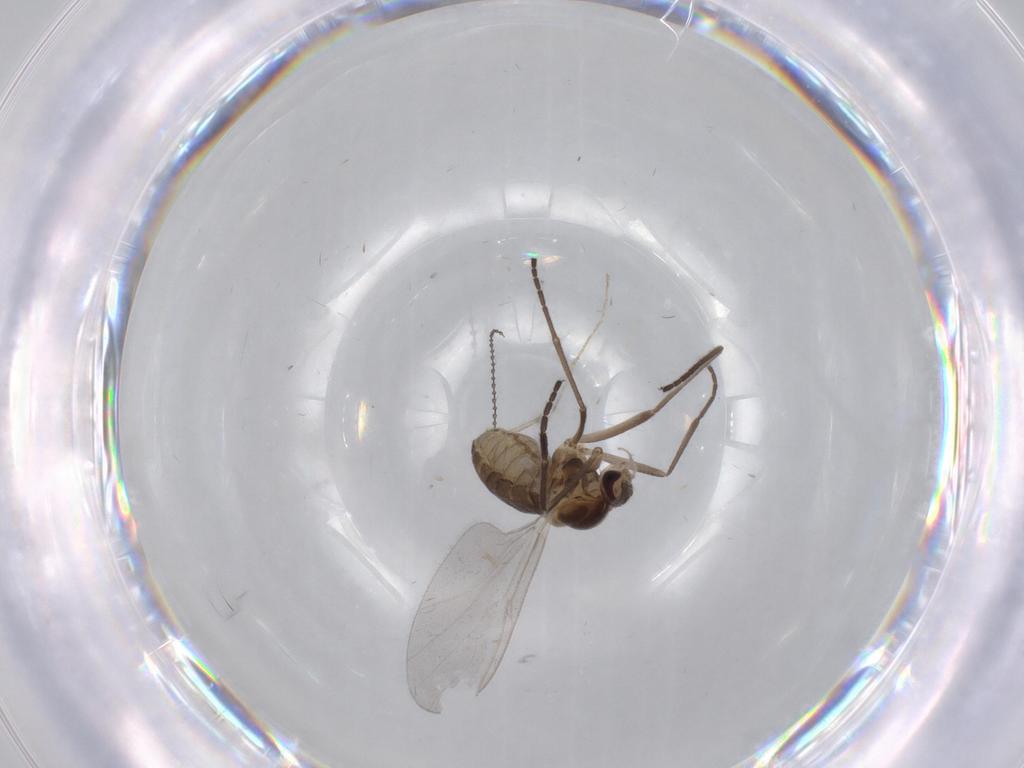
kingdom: Animalia
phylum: Arthropoda
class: Insecta
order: Diptera
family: Cecidomyiidae
